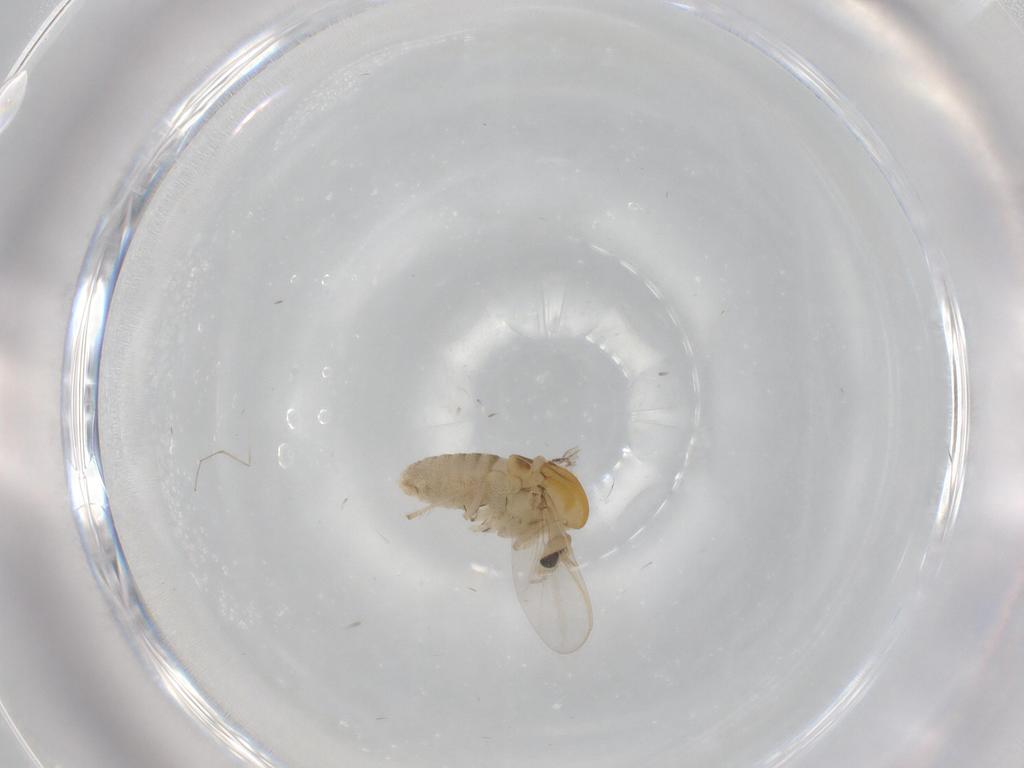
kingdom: Animalia
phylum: Arthropoda
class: Insecta
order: Diptera
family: Chironomidae
